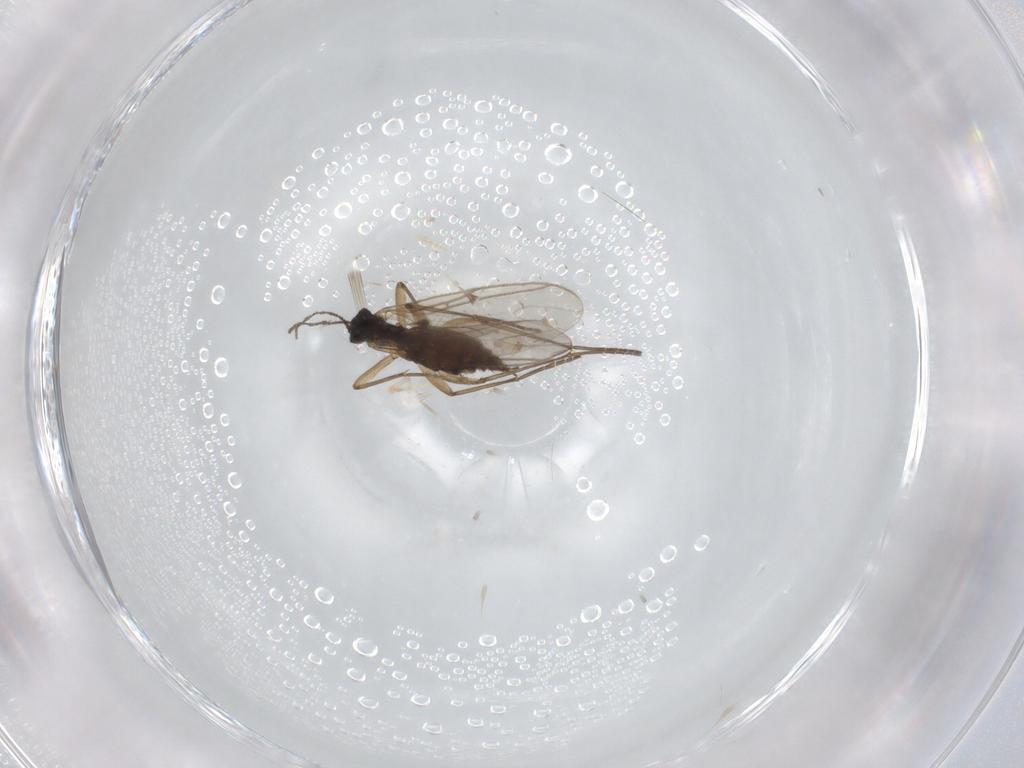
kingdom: Animalia
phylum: Arthropoda
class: Insecta
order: Diptera
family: Sciaridae
